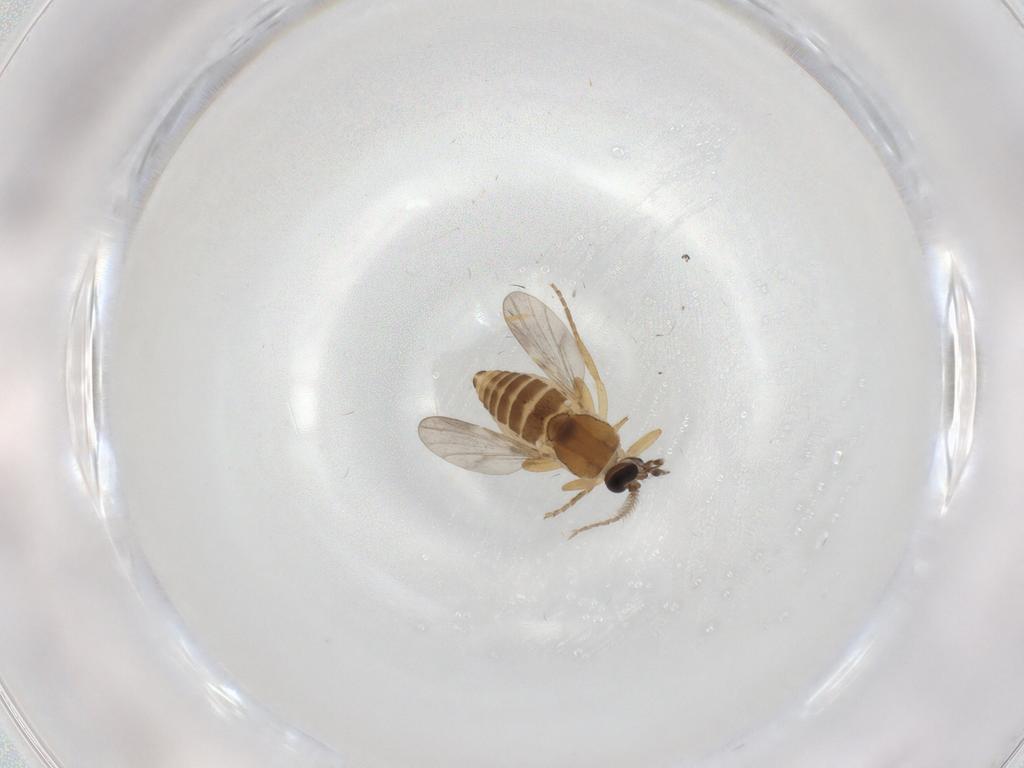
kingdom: Animalia
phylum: Arthropoda
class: Insecta
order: Diptera
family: Ceratopogonidae
